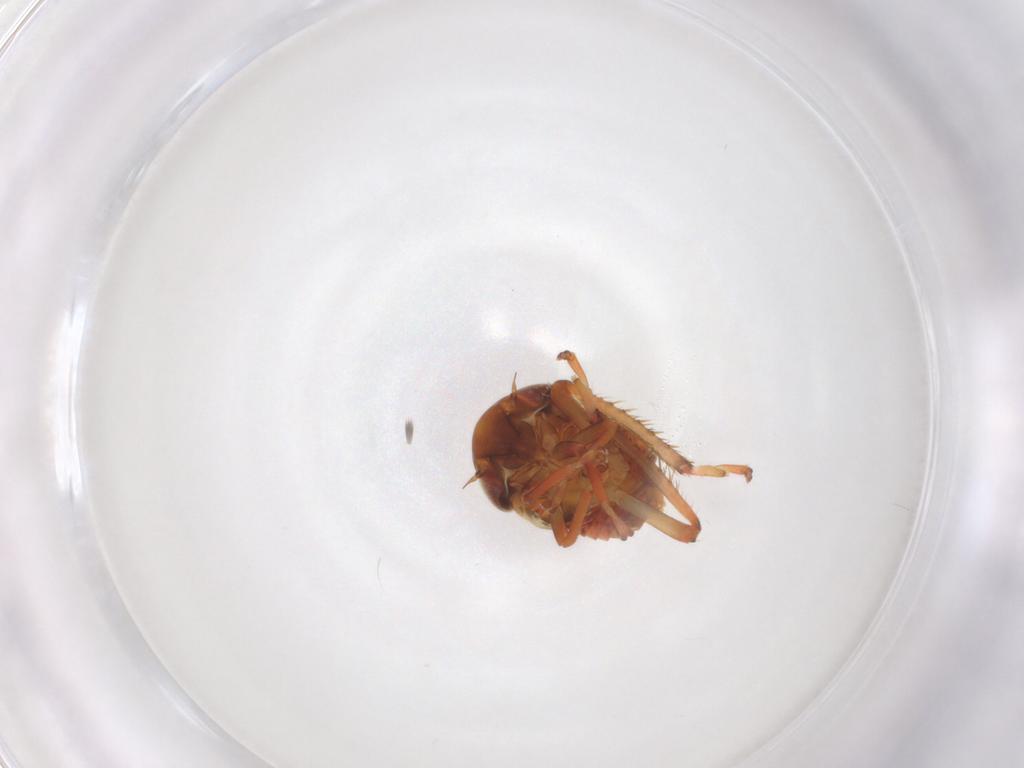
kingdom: Animalia
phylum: Arthropoda
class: Insecta
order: Hemiptera
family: Cicadellidae
